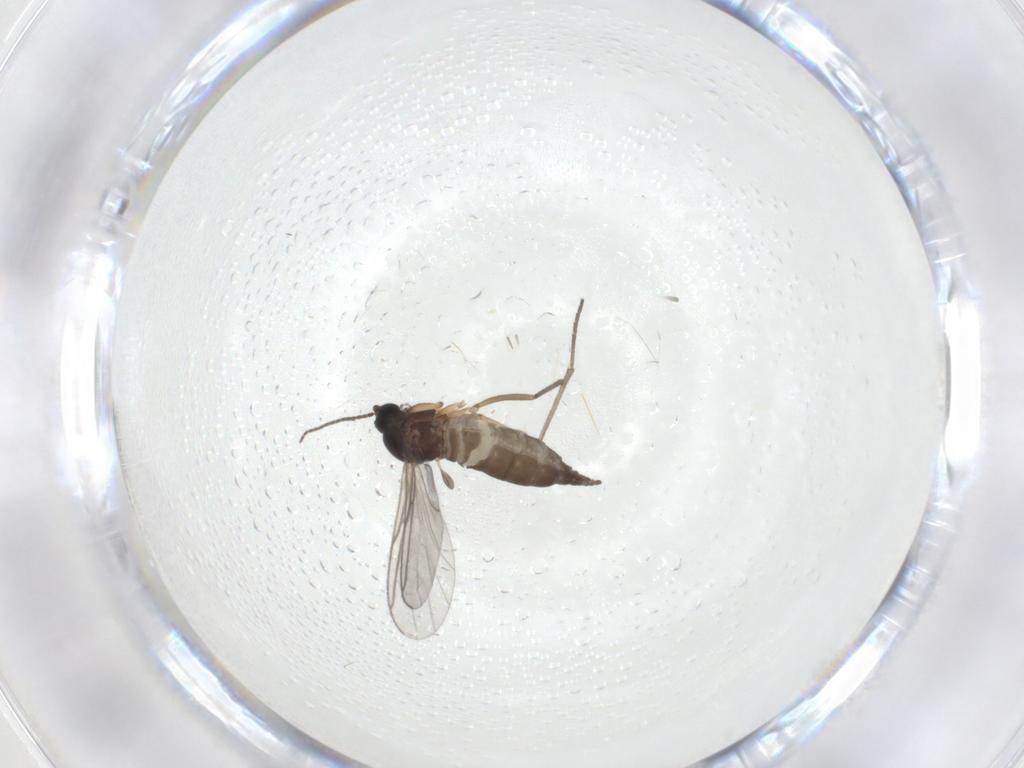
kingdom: Animalia
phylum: Arthropoda
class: Insecta
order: Diptera
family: Sciaridae
